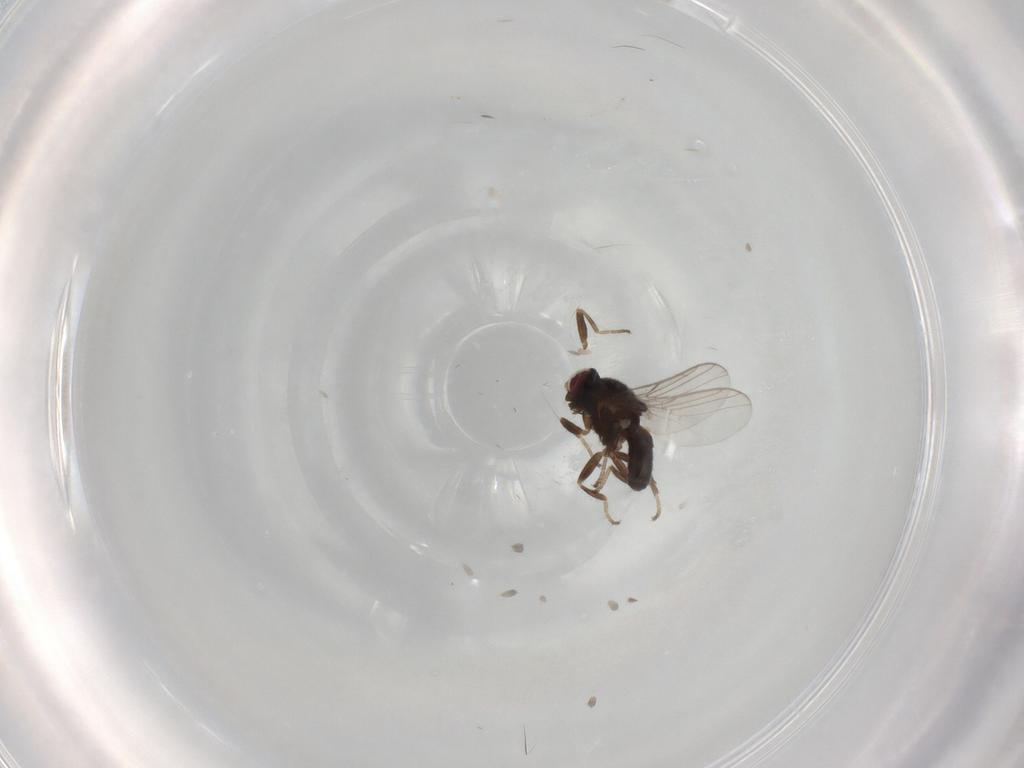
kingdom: Animalia
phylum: Arthropoda
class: Insecta
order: Diptera
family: Chloropidae
